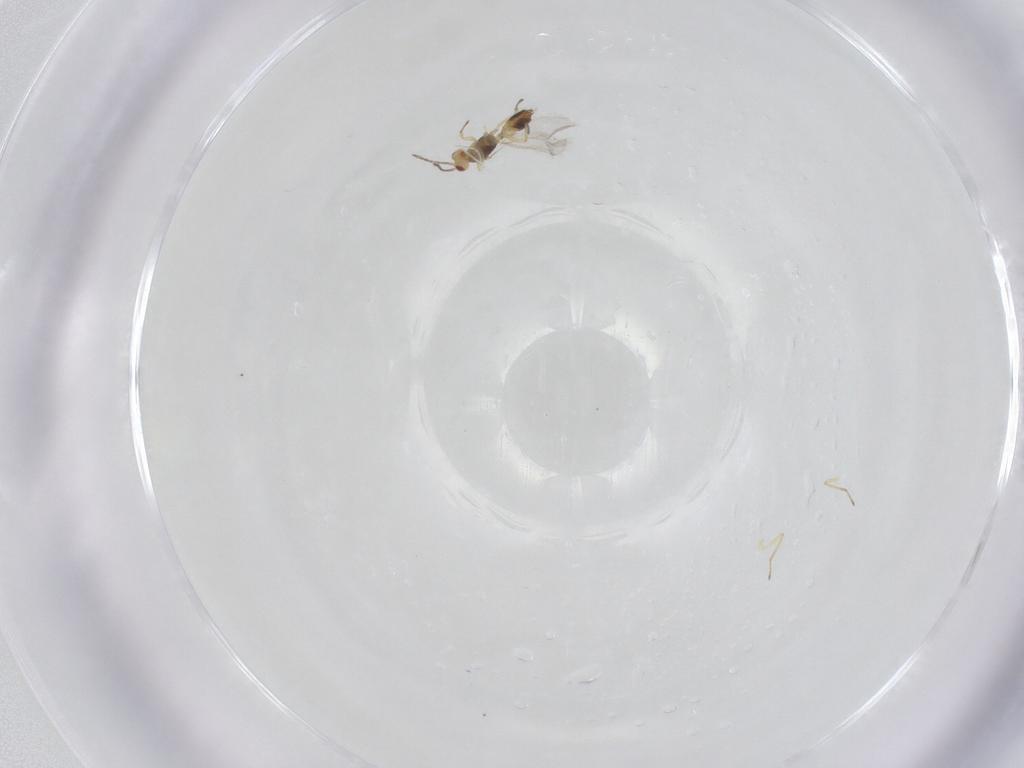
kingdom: Animalia
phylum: Arthropoda
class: Insecta
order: Hymenoptera
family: Eulophidae
